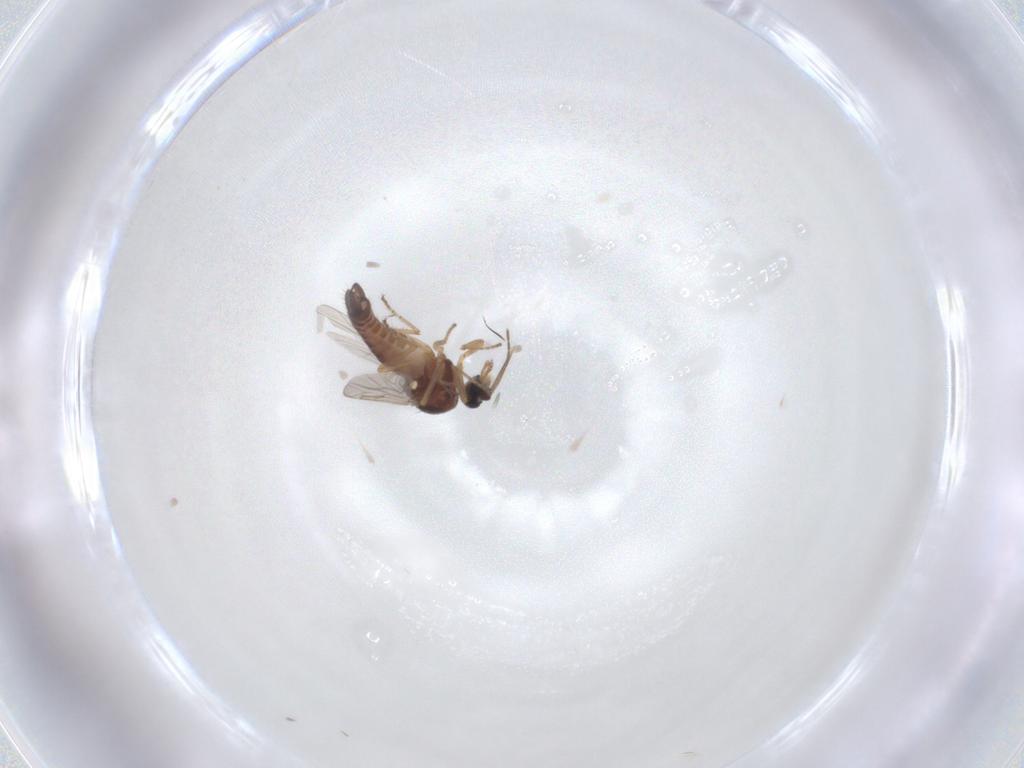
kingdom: Animalia
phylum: Arthropoda
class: Insecta
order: Diptera
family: Ceratopogonidae
